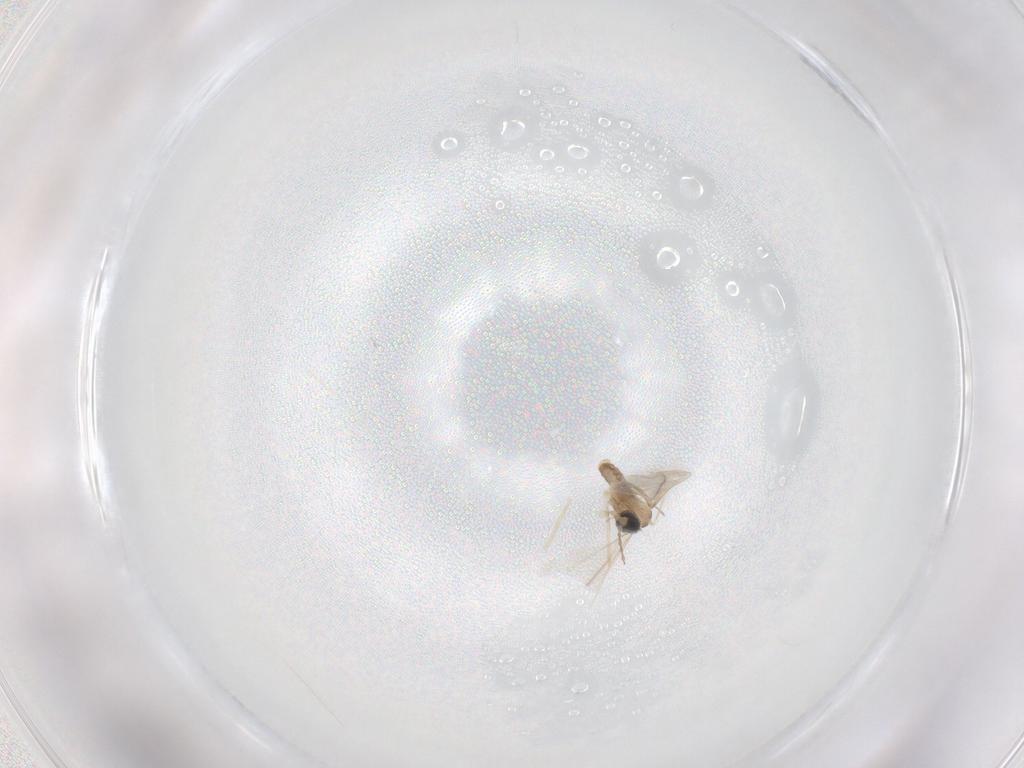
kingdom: Animalia
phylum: Arthropoda
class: Insecta
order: Diptera
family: Cecidomyiidae
